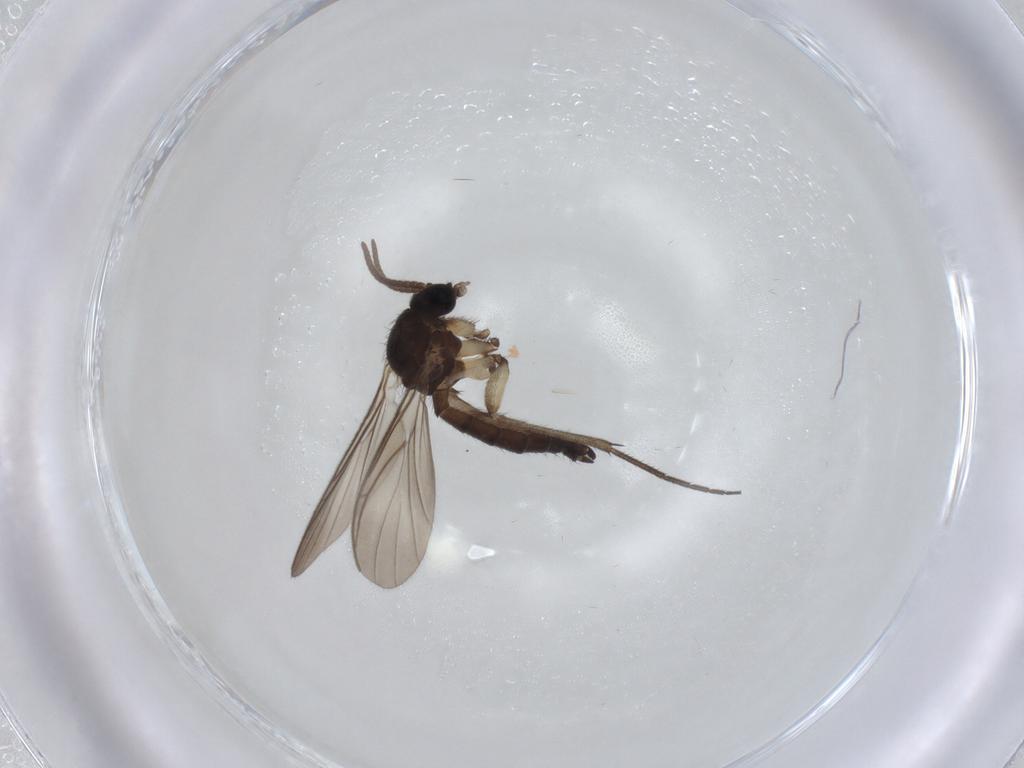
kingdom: Animalia
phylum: Arthropoda
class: Insecta
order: Diptera
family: Keroplatidae
